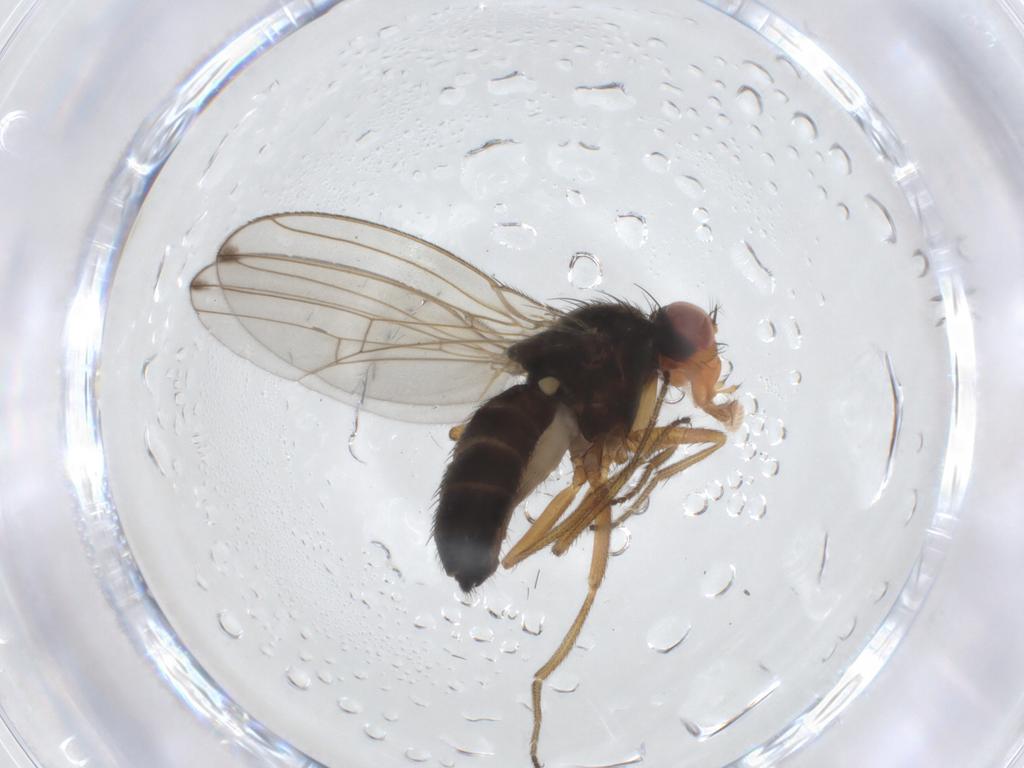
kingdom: Animalia
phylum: Arthropoda
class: Insecta
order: Diptera
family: Drosophilidae
